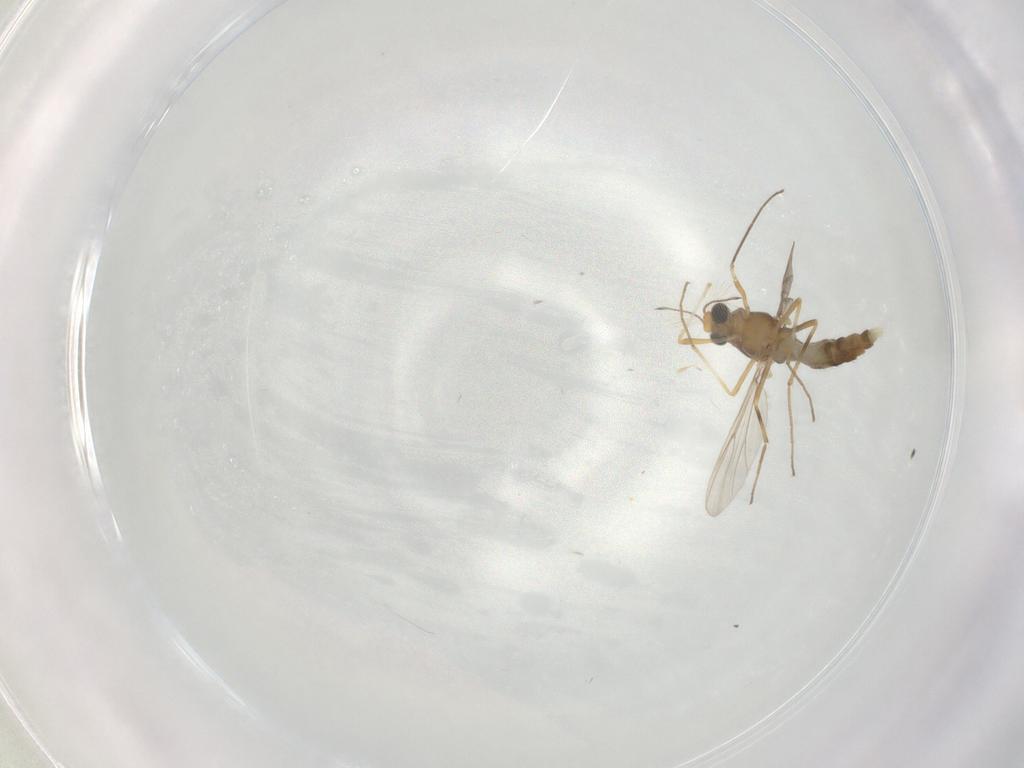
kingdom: Animalia
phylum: Arthropoda
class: Insecta
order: Diptera
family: Chironomidae
